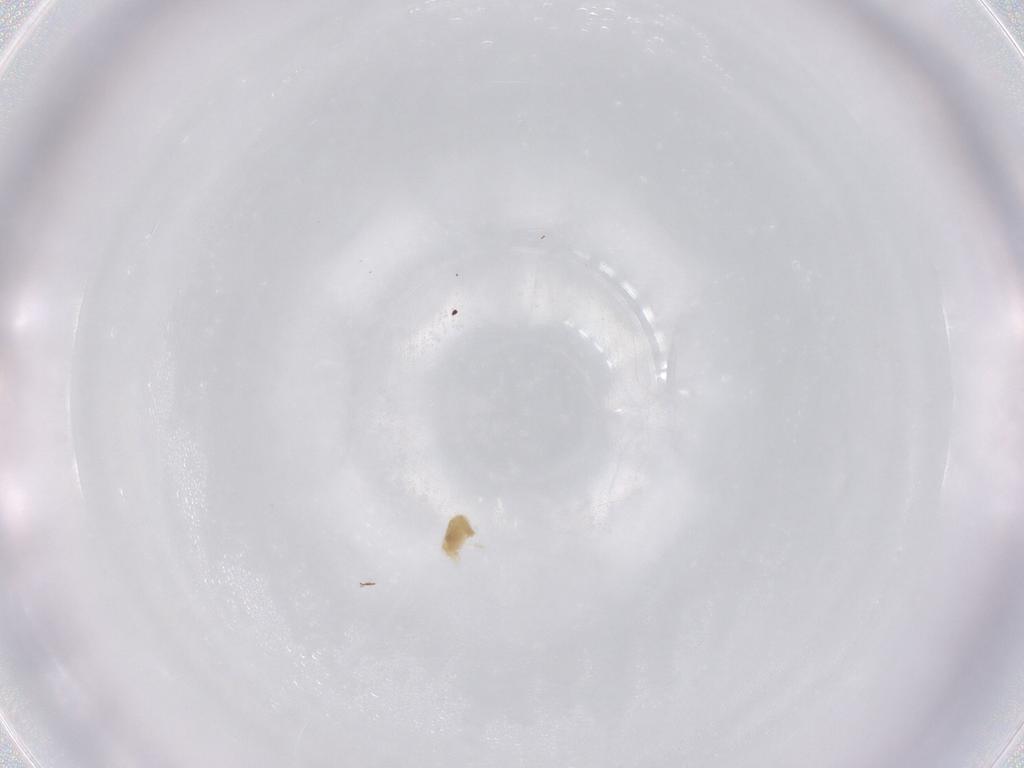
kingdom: Animalia
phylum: Arthropoda
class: Arachnida
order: Trombidiformes
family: Eupodidae
